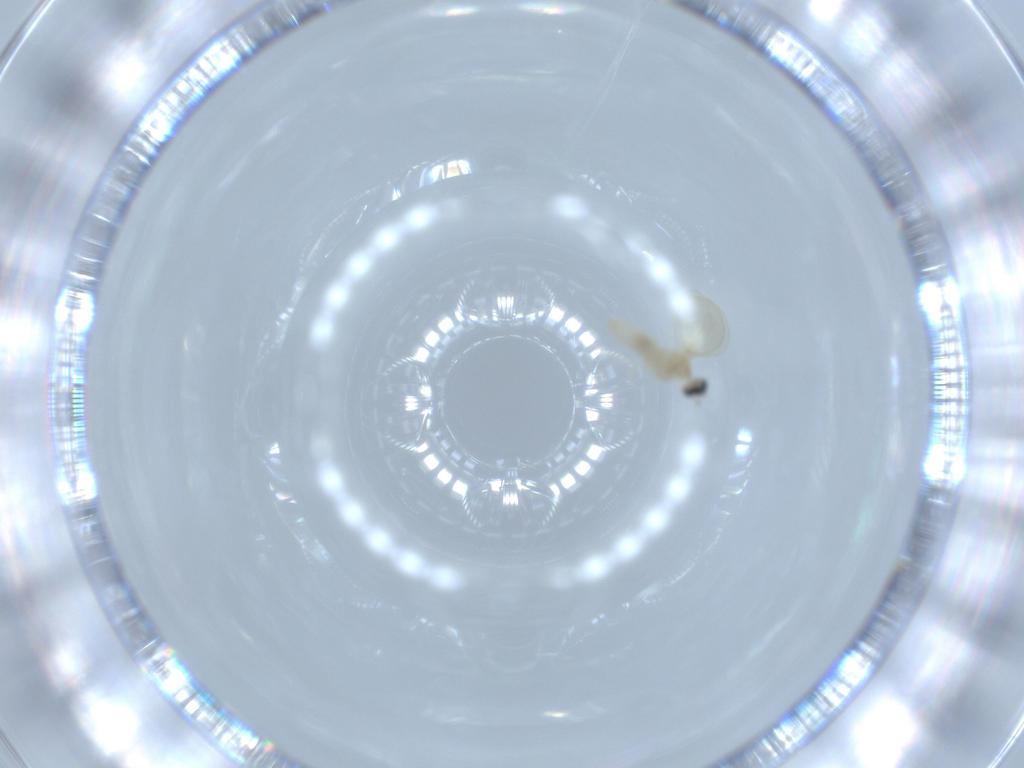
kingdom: Animalia
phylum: Arthropoda
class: Insecta
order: Diptera
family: Cecidomyiidae
